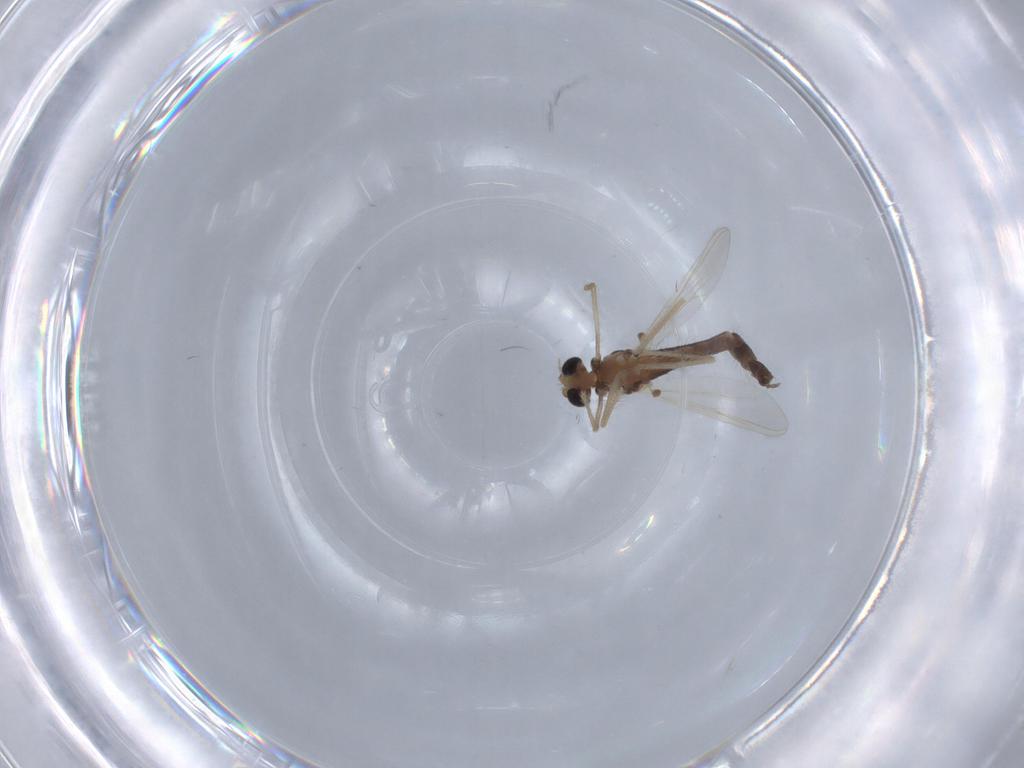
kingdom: Animalia
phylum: Arthropoda
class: Insecta
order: Diptera
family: Chironomidae
